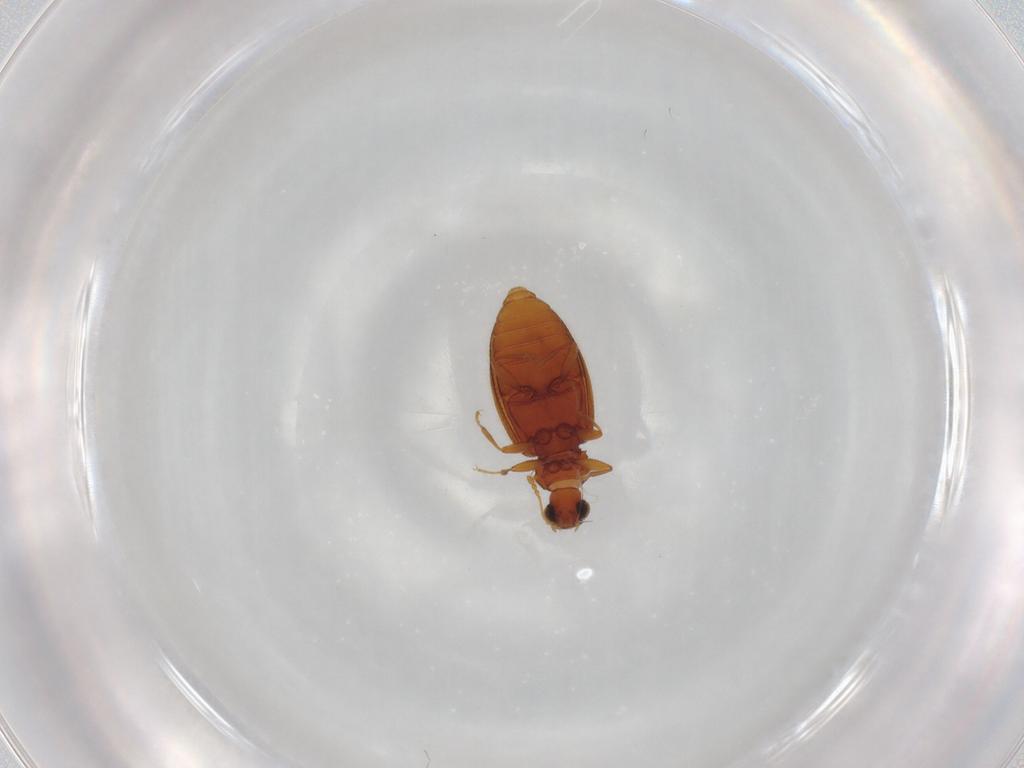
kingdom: Animalia
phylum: Arthropoda
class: Insecta
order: Coleoptera
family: Latridiidae
